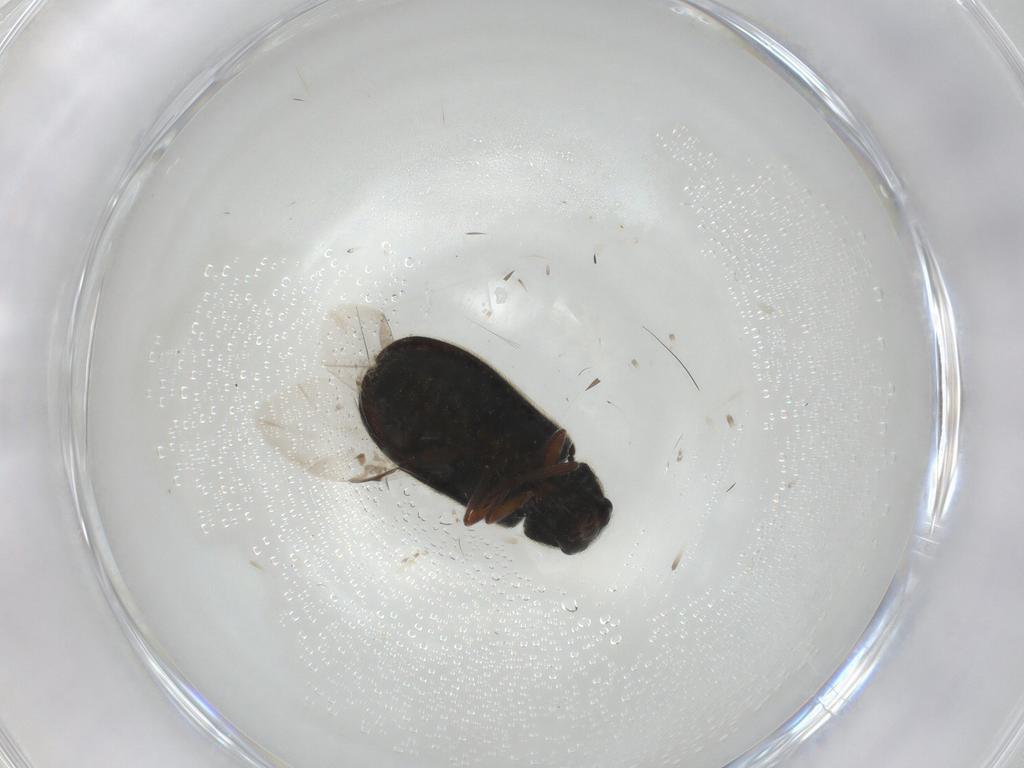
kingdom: Animalia
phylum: Arthropoda
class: Insecta
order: Coleoptera
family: Melyridae
